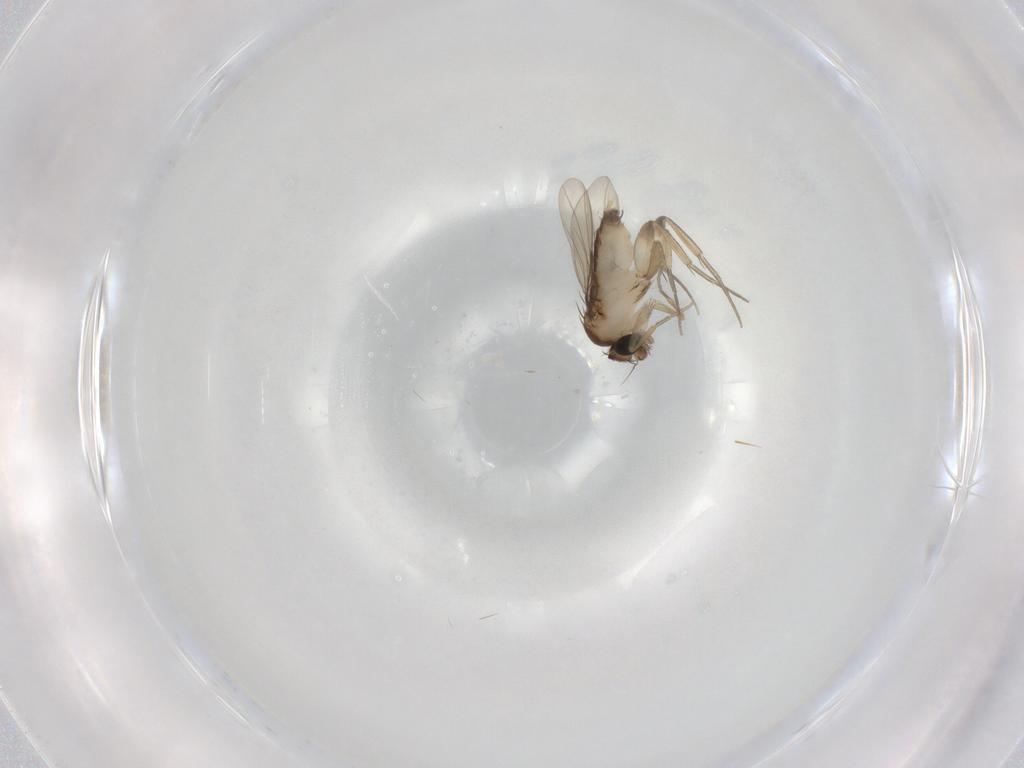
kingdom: Animalia
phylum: Arthropoda
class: Insecta
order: Diptera
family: Phoridae
